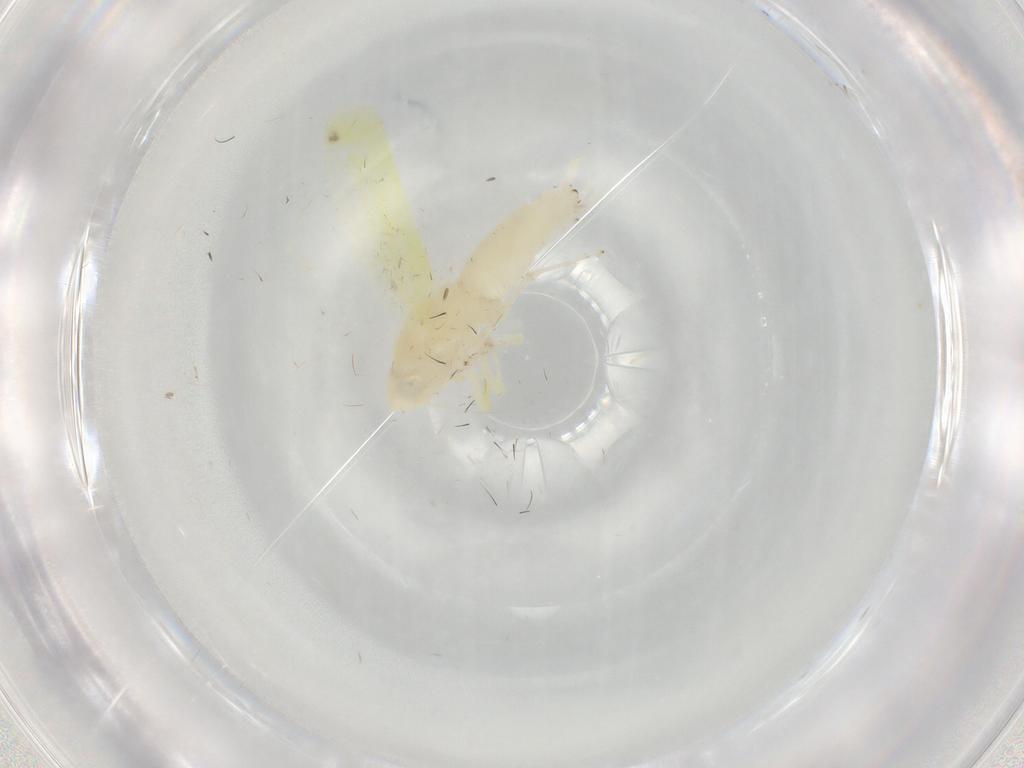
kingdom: Animalia
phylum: Arthropoda
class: Insecta
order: Hemiptera
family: Cicadellidae
